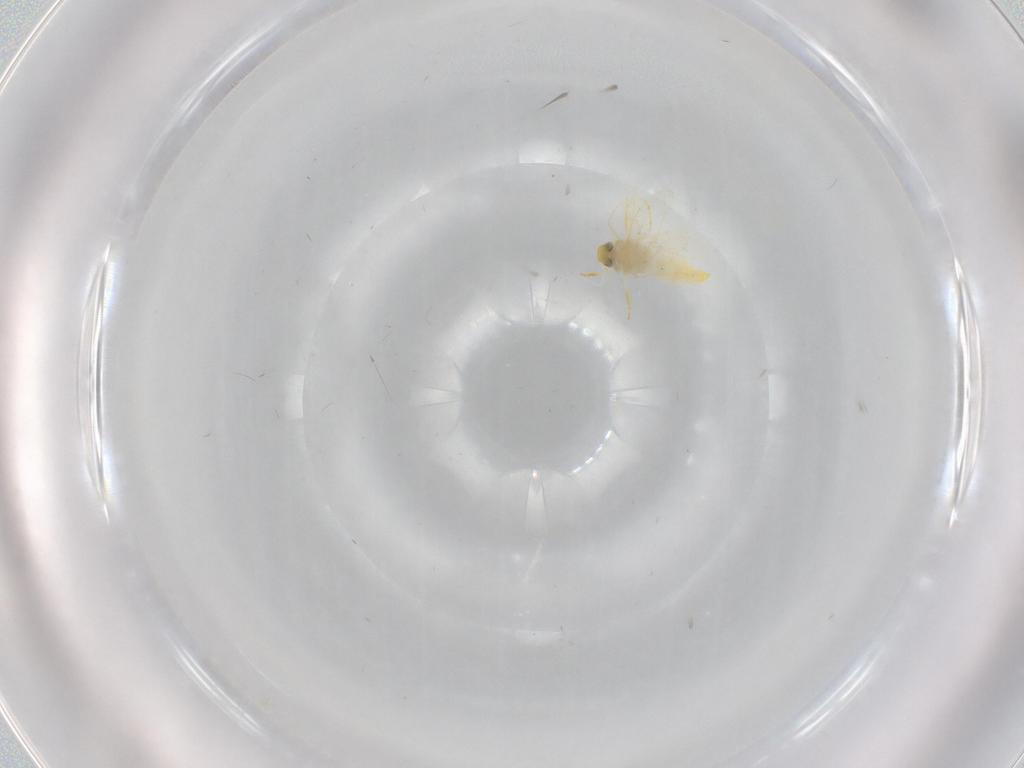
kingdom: Animalia
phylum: Arthropoda
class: Insecta
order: Hemiptera
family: Aleyrodidae
